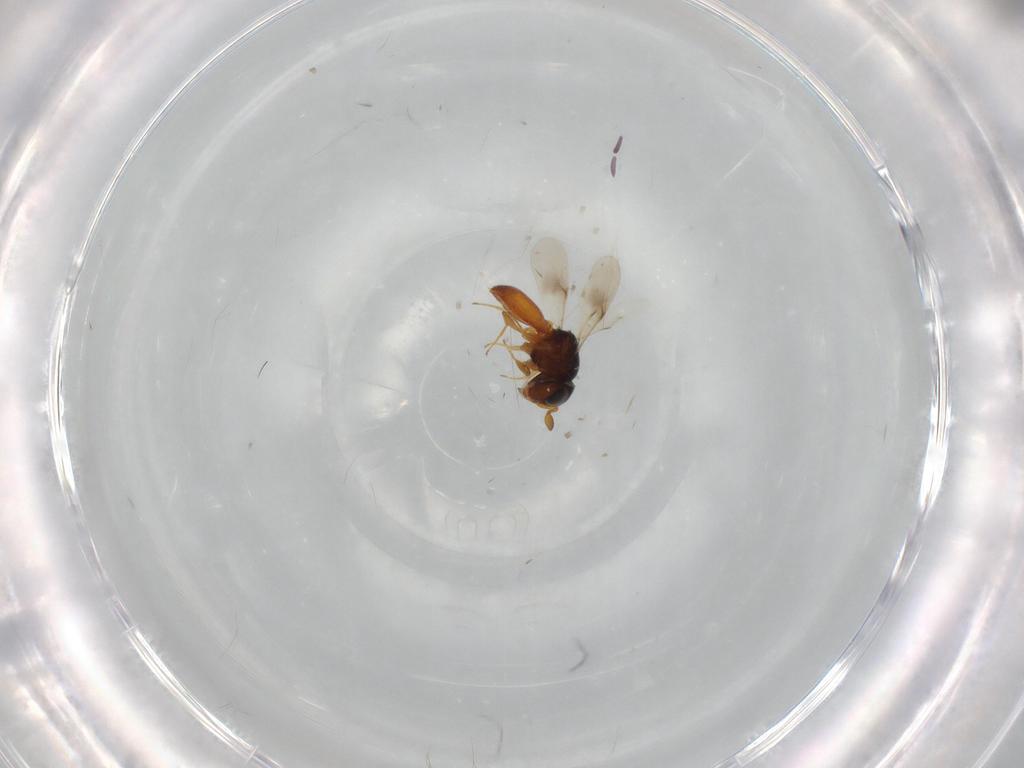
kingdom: Animalia
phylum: Arthropoda
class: Insecta
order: Hymenoptera
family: Scelionidae
